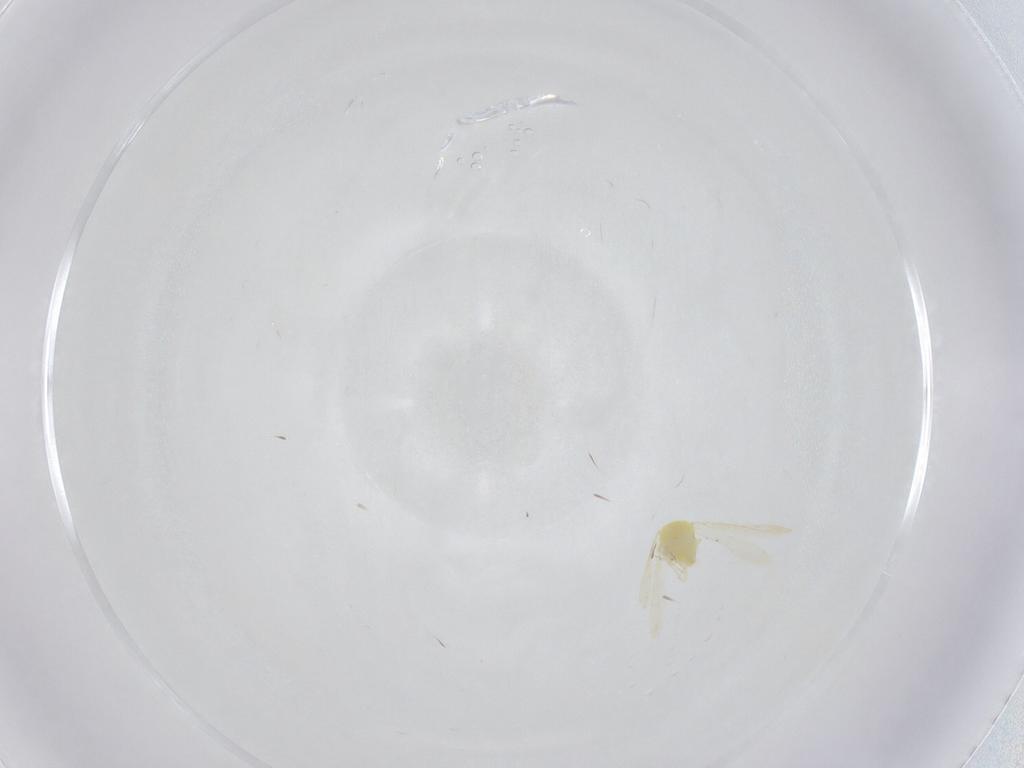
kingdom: Animalia
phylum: Arthropoda
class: Insecta
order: Hemiptera
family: Aleyrodidae
